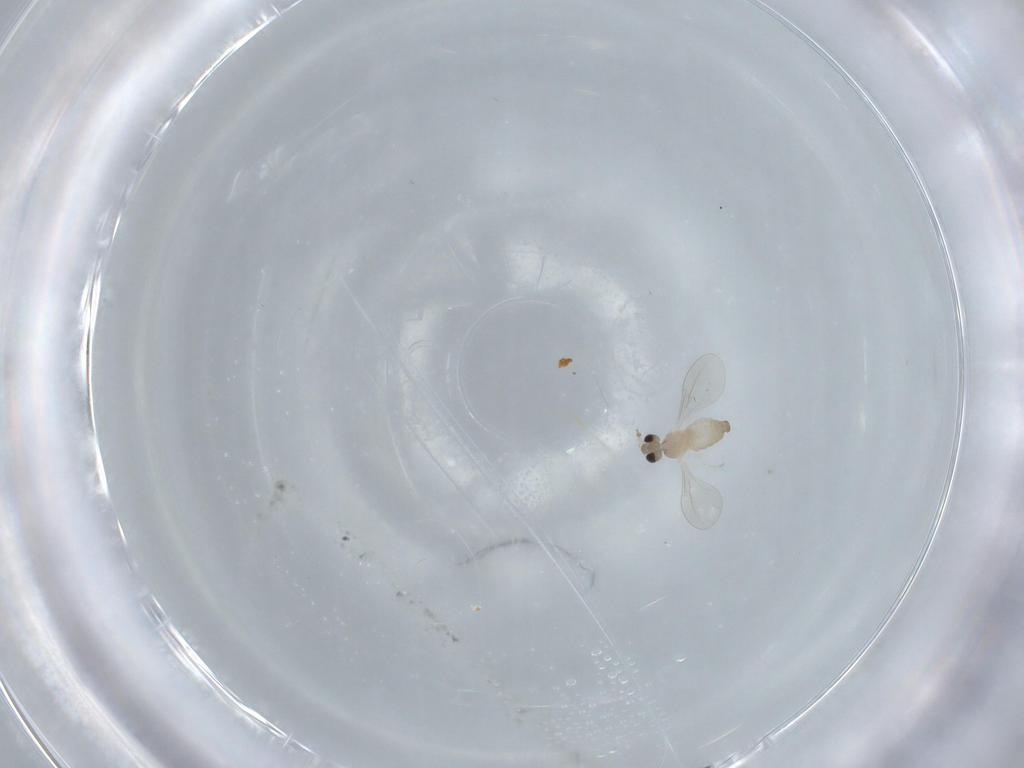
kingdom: Animalia
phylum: Arthropoda
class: Insecta
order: Diptera
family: Cecidomyiidae
